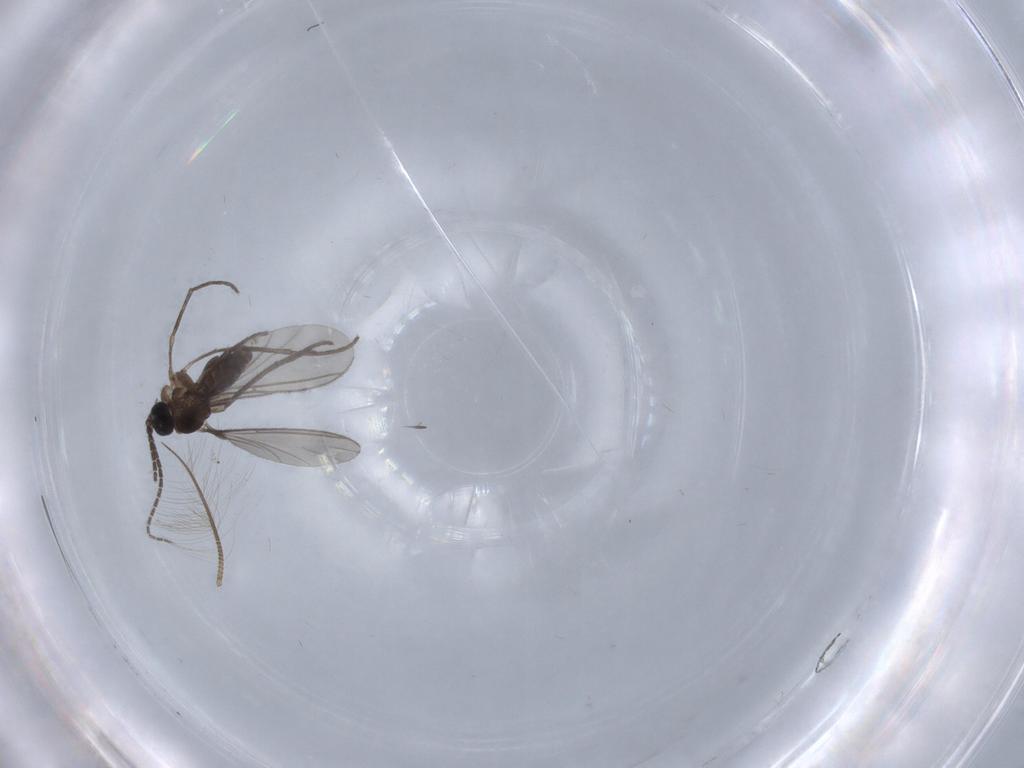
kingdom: Animalia
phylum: Arthropoda
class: Insecta
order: Diptera
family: Sciaridae
